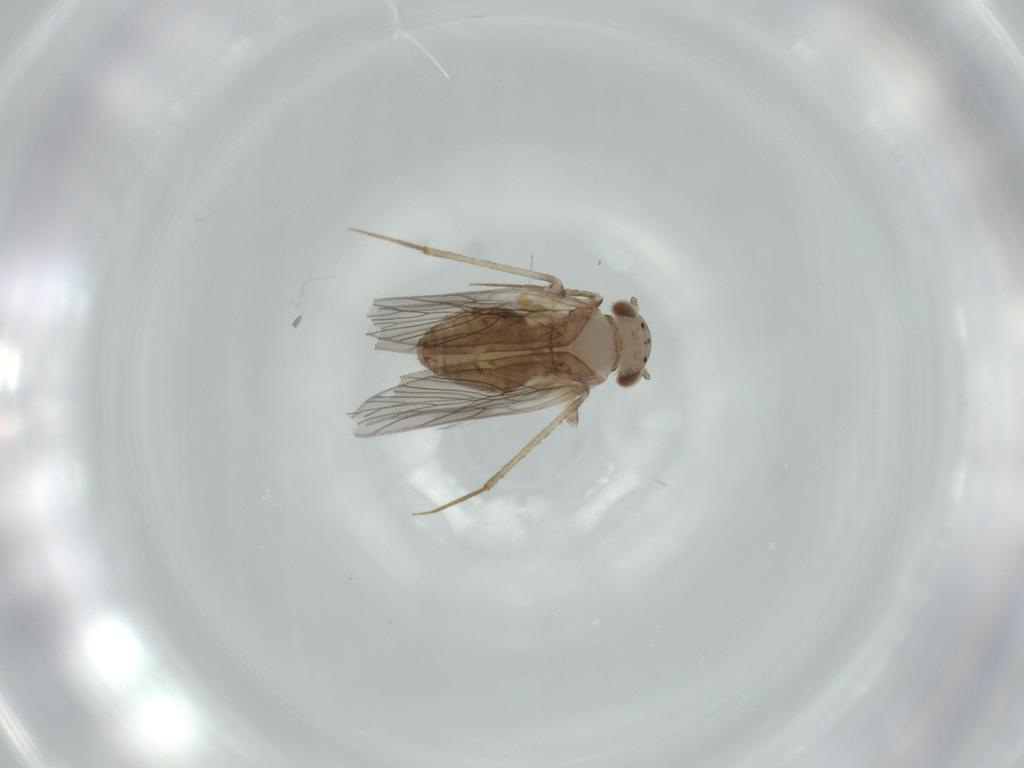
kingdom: Animalia
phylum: Arthropoda
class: Insecta
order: Psocodea
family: Lepidopsocidae
